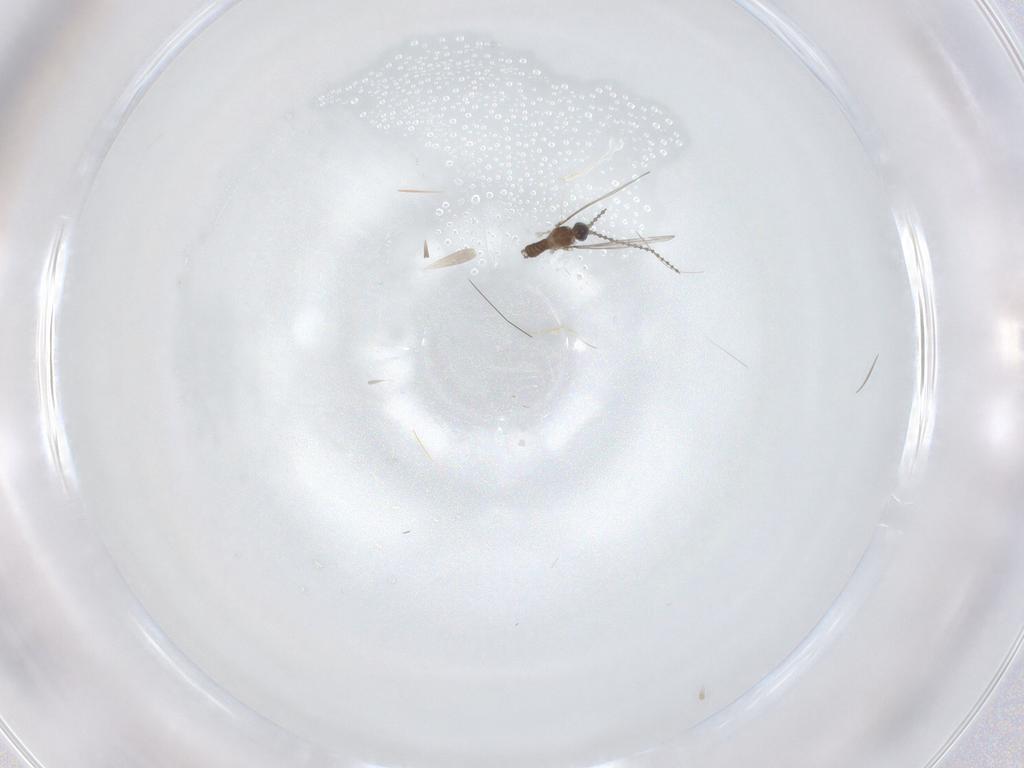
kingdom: Animalia
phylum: Arthropoda
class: Insecta
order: Diptera
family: Cecidomyiidae
